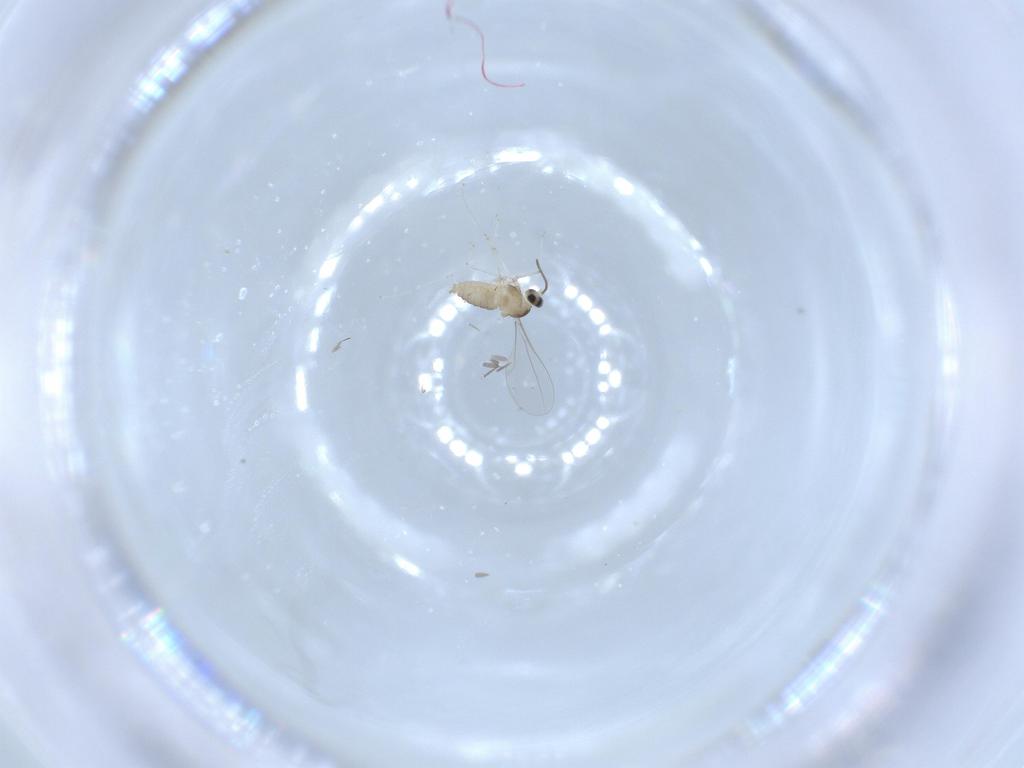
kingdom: Animalia
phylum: Arthropoda
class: Insecta
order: Diptera
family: Cecidomyiidae
